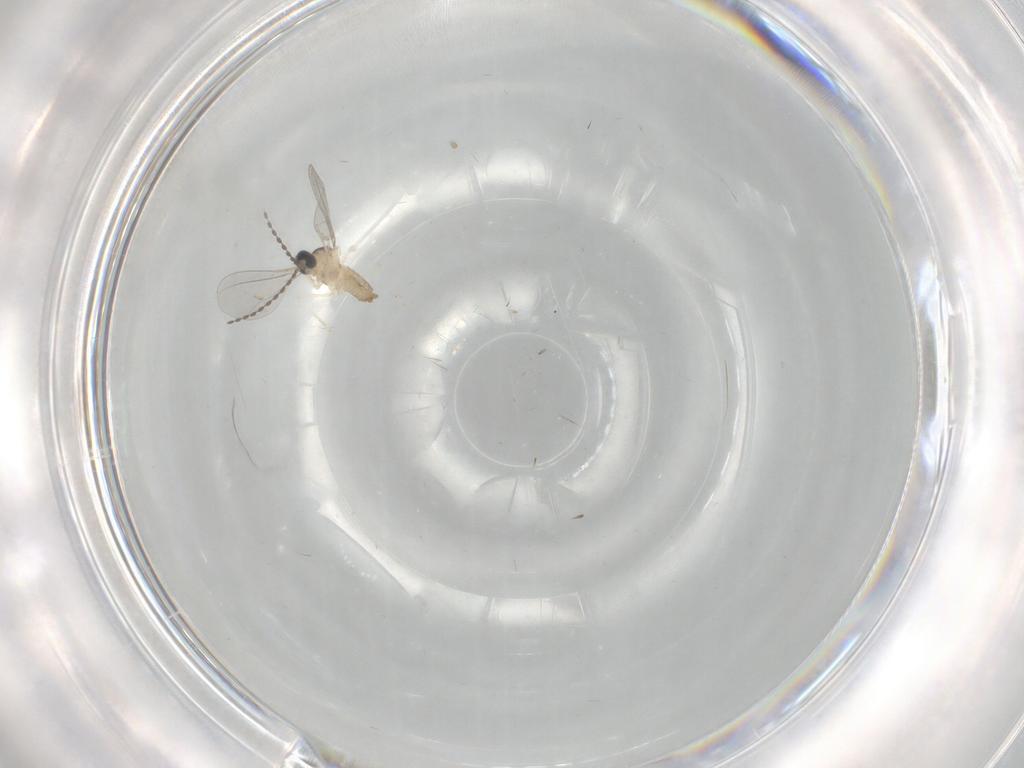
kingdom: Animalia
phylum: Arthropoda
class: Insecta
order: Diptera
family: Cecidomyiidae
